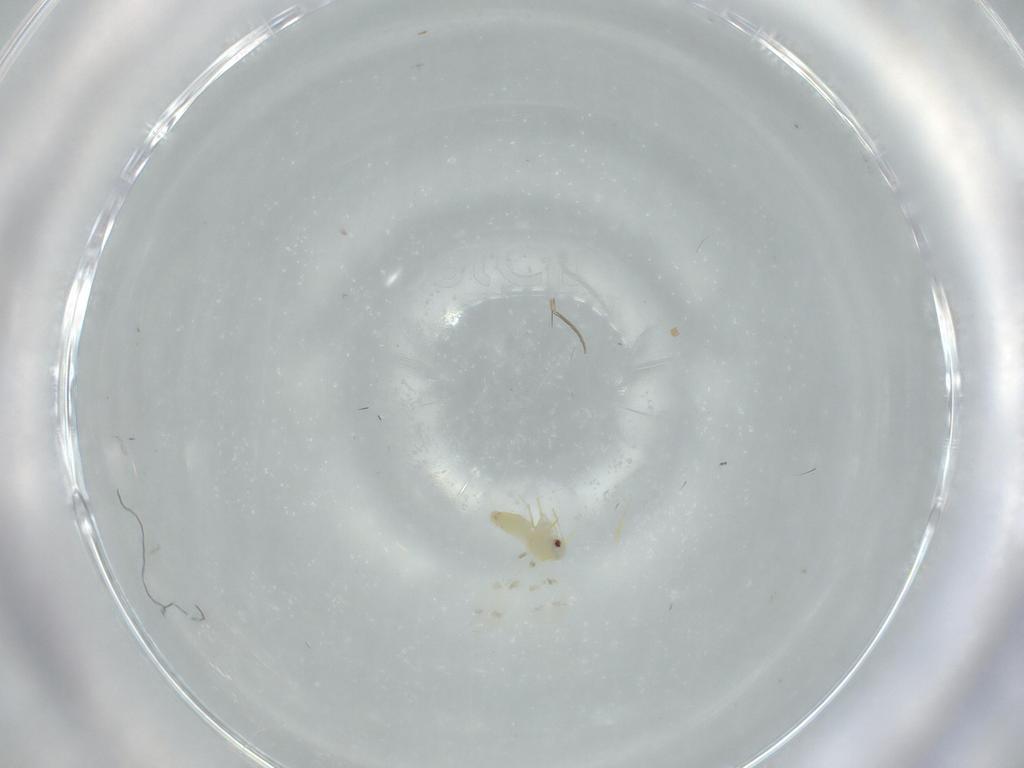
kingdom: Animalia
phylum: Arthropoda
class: Insecta
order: Hemiptera
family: Aleyrodidae
